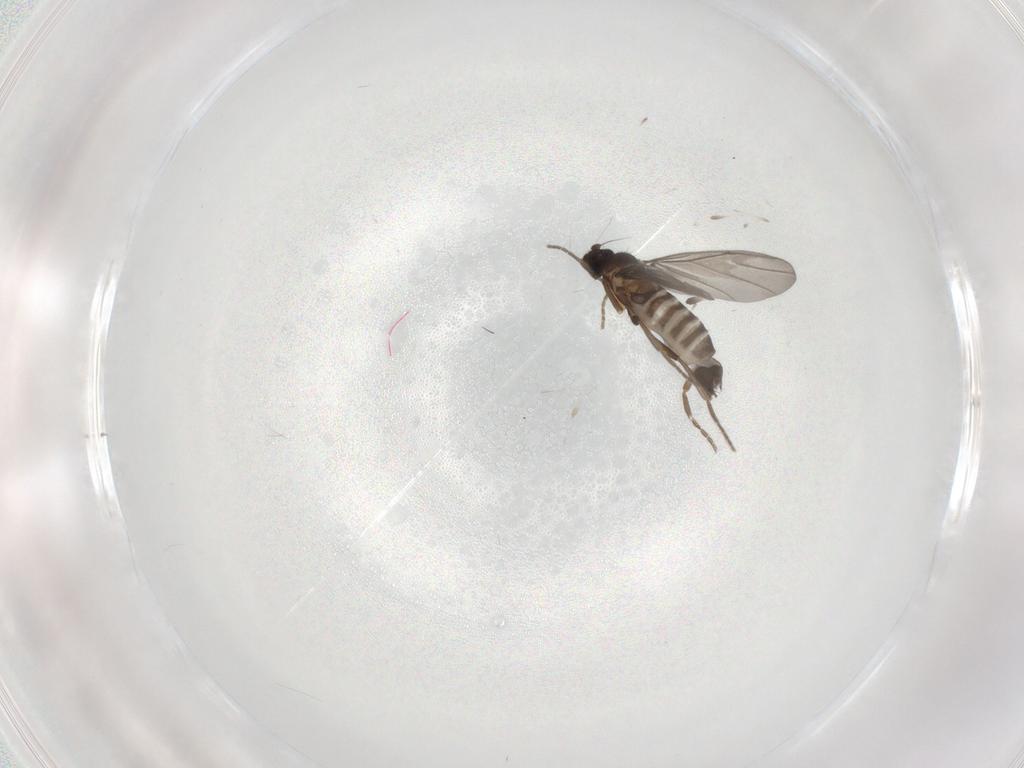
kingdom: Animalia
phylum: Arthropoda
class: Insecta
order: Diptera
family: Phoridae
